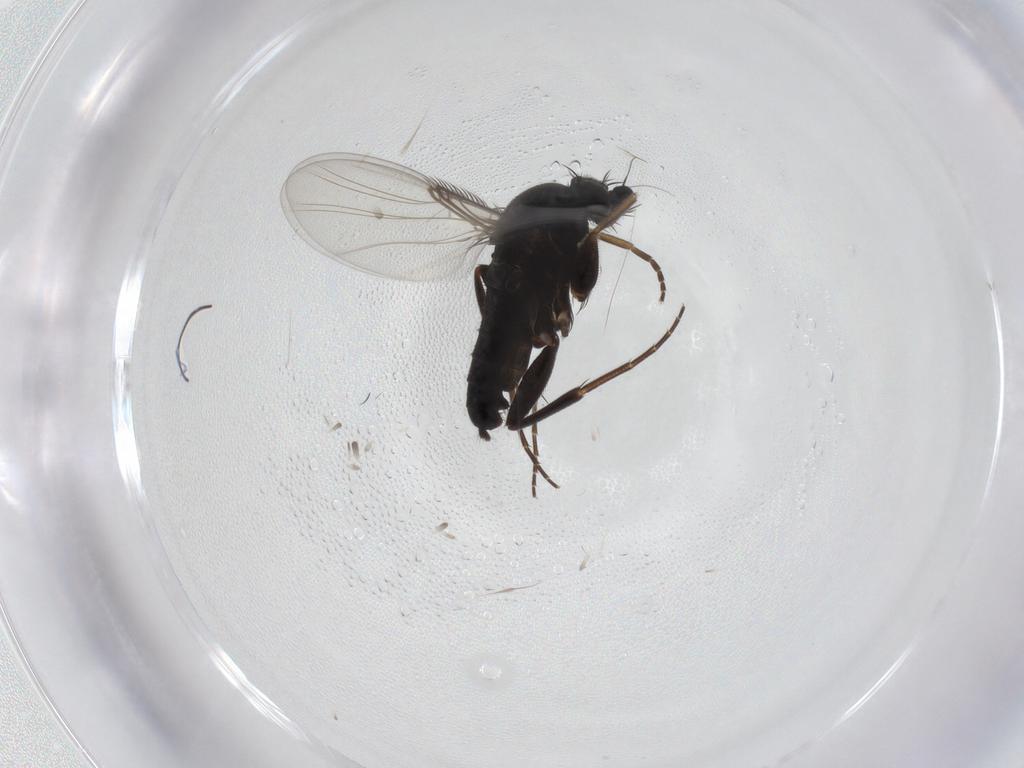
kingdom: Animalia
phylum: Arthropoda
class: Insecta
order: Diptera
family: Phoridae
